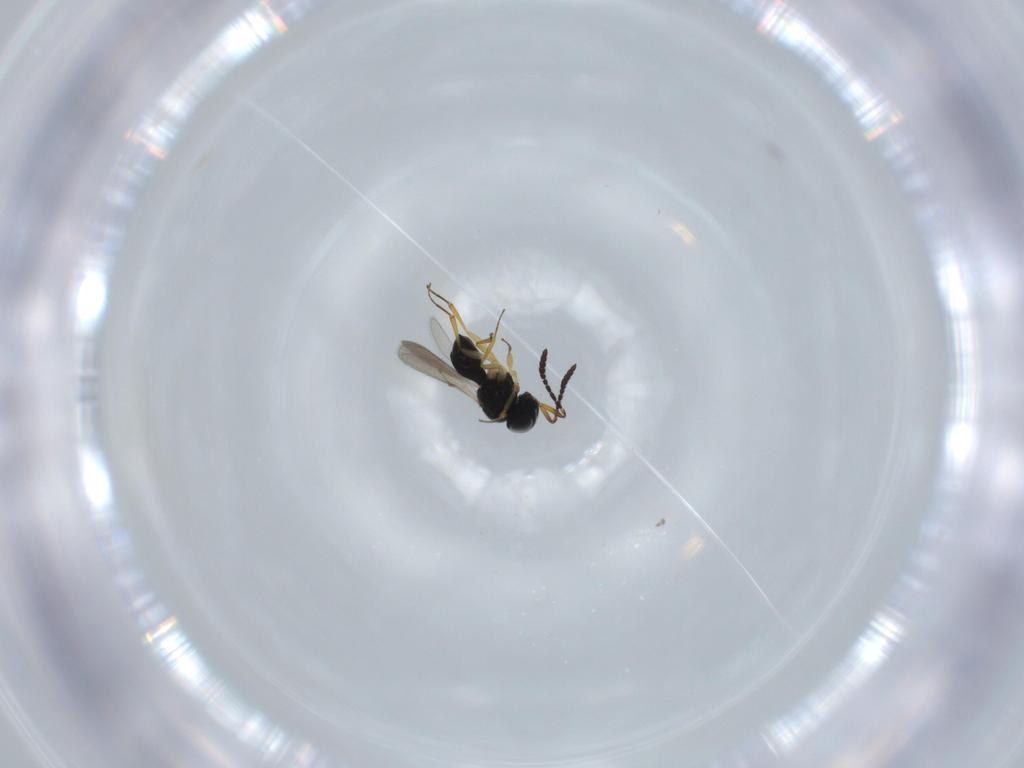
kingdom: Animalia
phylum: Arthropoda
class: Insecta
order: Hymenoptera
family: Scelionidae
